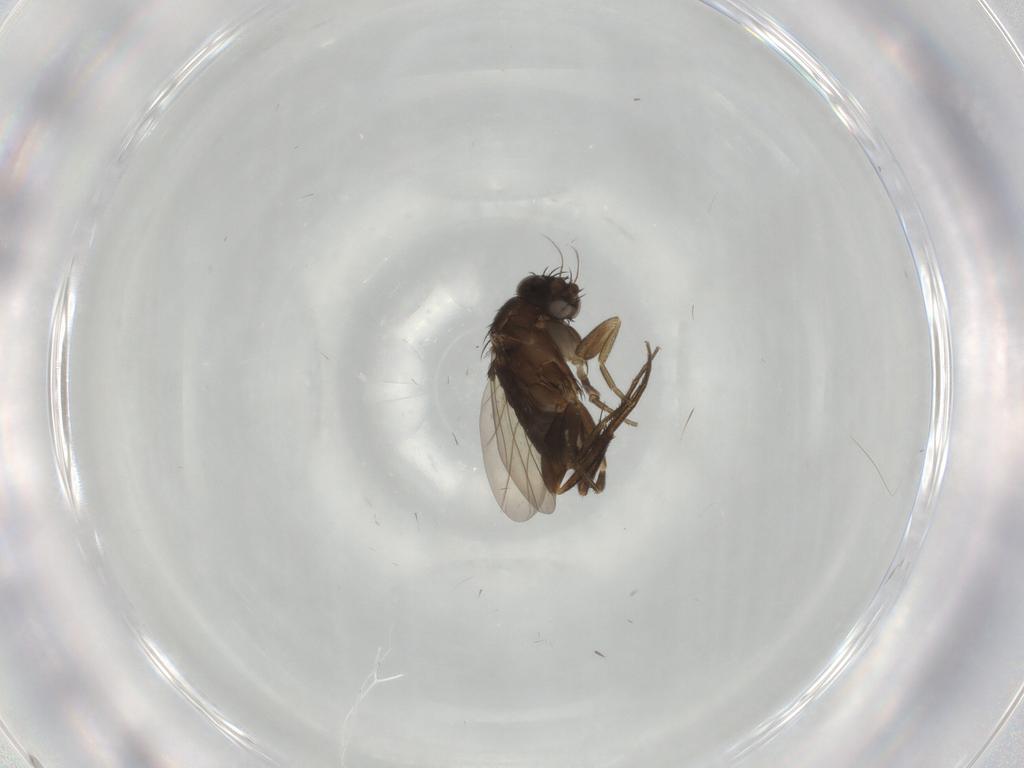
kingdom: Animalia
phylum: Arthropoda
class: Insecta
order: Diptera
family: Phoridae
